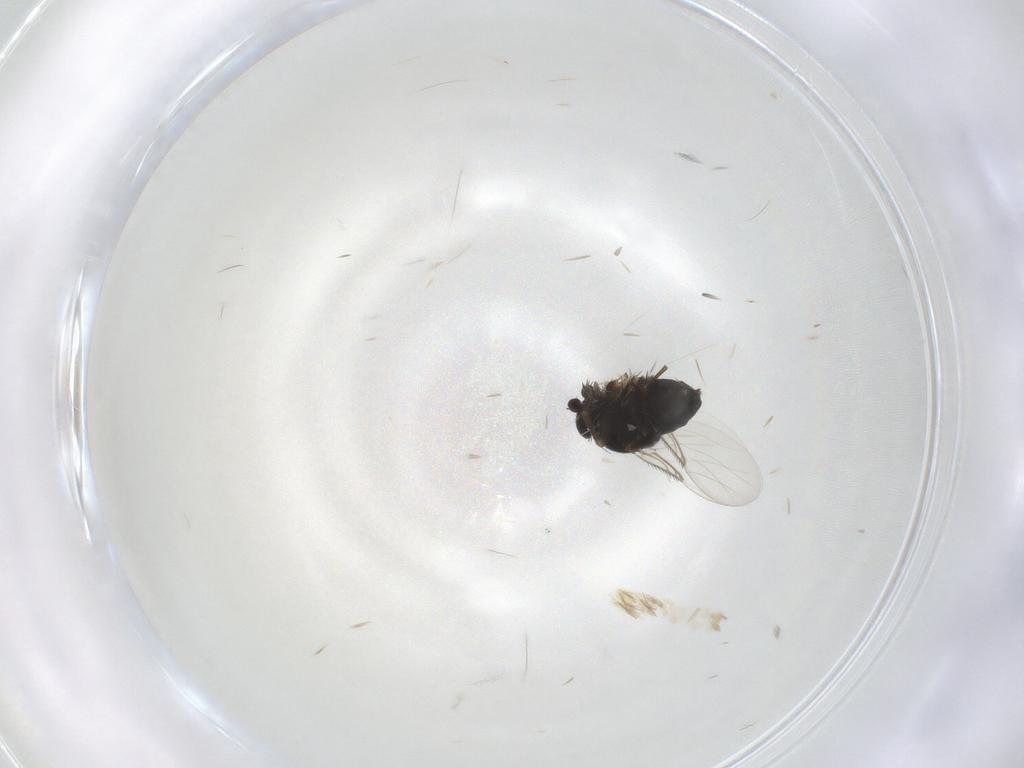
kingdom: Animalia
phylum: Arthropoda
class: Insecta
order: Diptera
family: Phoridae
